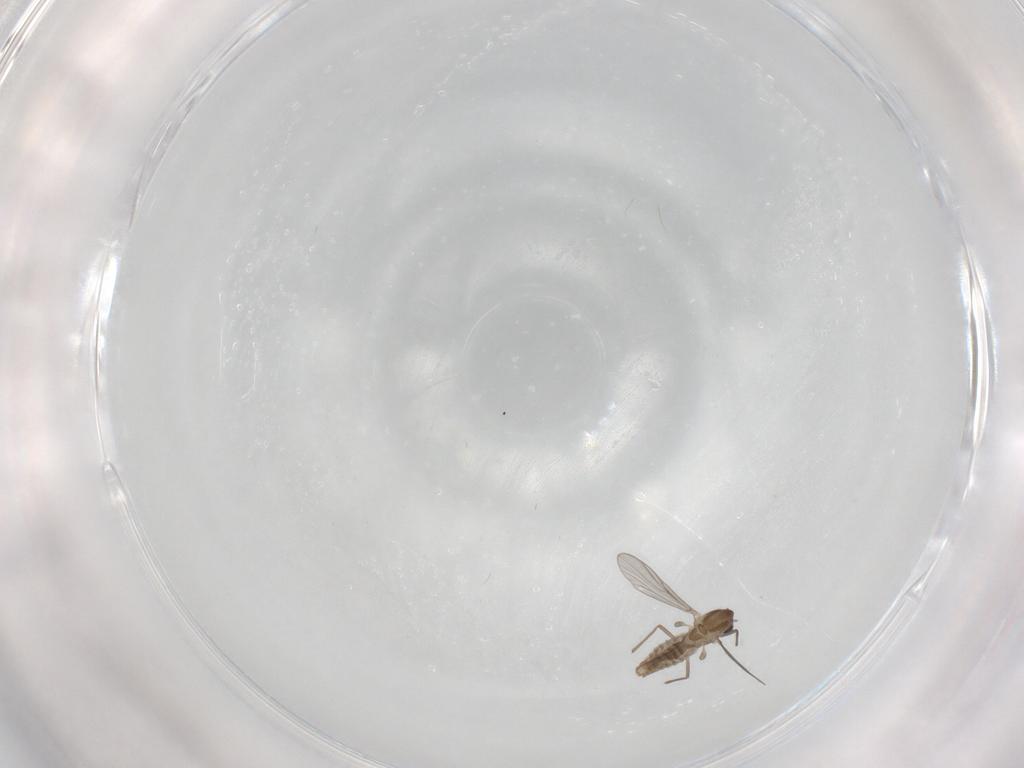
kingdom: Animalia
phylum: Arthropoda
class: Insecta
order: Diptera
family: Chironomidae
